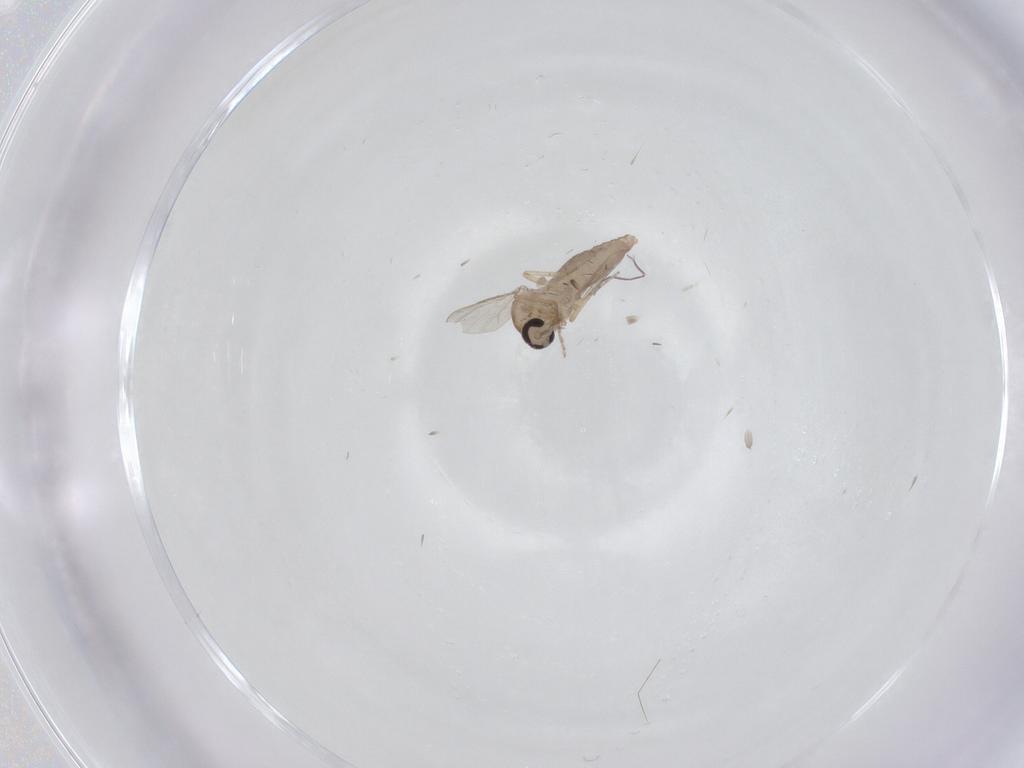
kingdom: Animalia
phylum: Arthropoda
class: Insecta
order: Diptera
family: Ceratopogonidae
